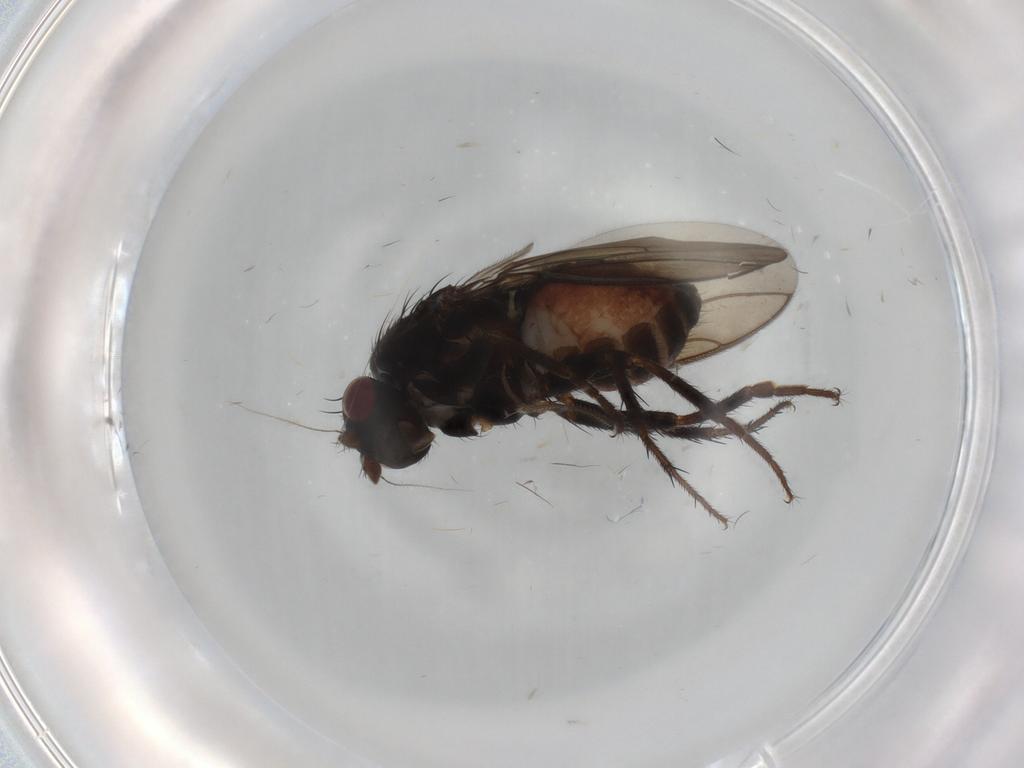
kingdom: Animalia
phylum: Arthropoda
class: Insecta
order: Diptera
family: Sphaeroceridae
